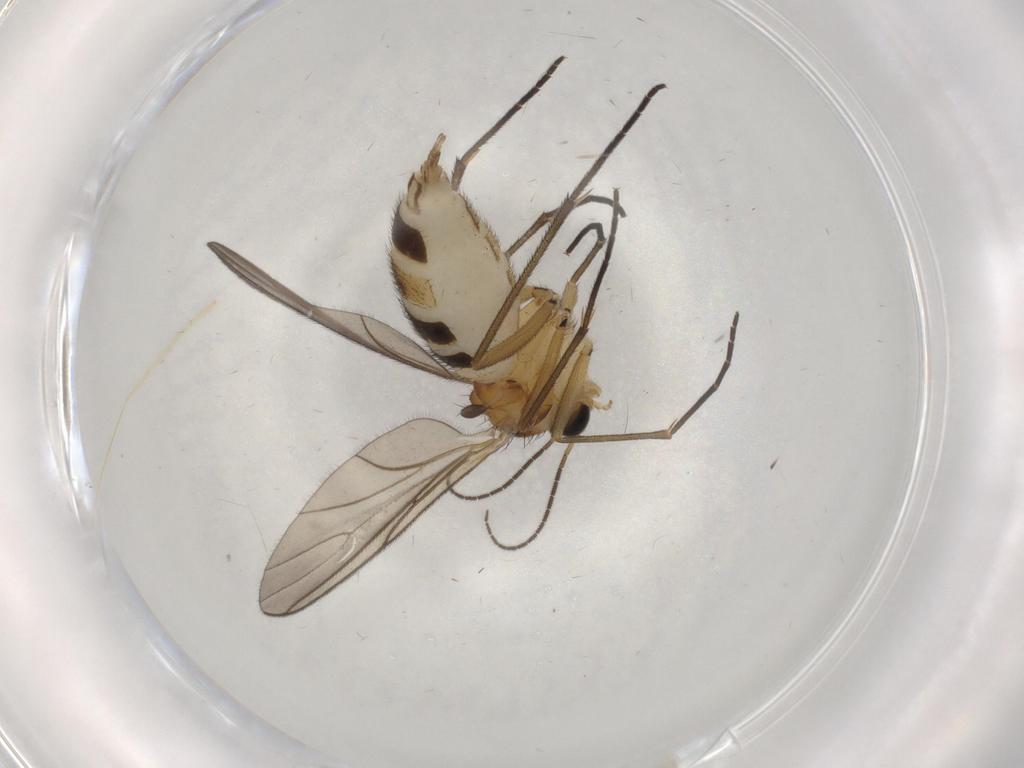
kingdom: Animalia
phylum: Arthropoda
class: Insecta
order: Diptera
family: Sciaridae
